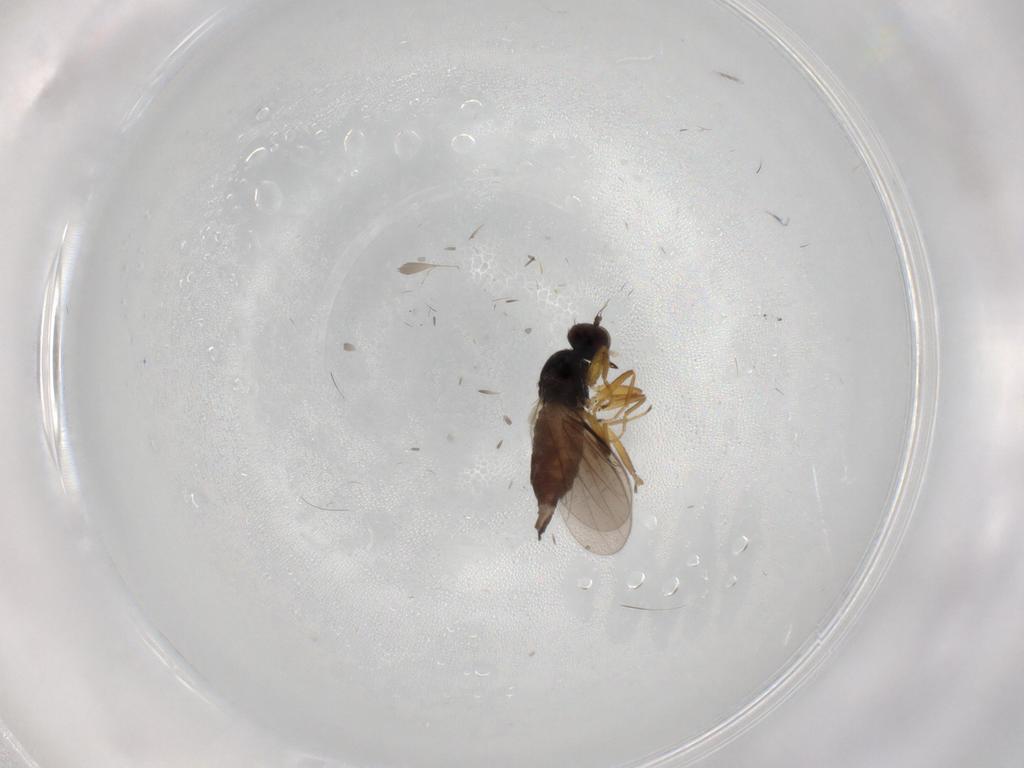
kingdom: Animalia
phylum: Arthropoda
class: Insecta
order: Diptera
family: Hybotidae
